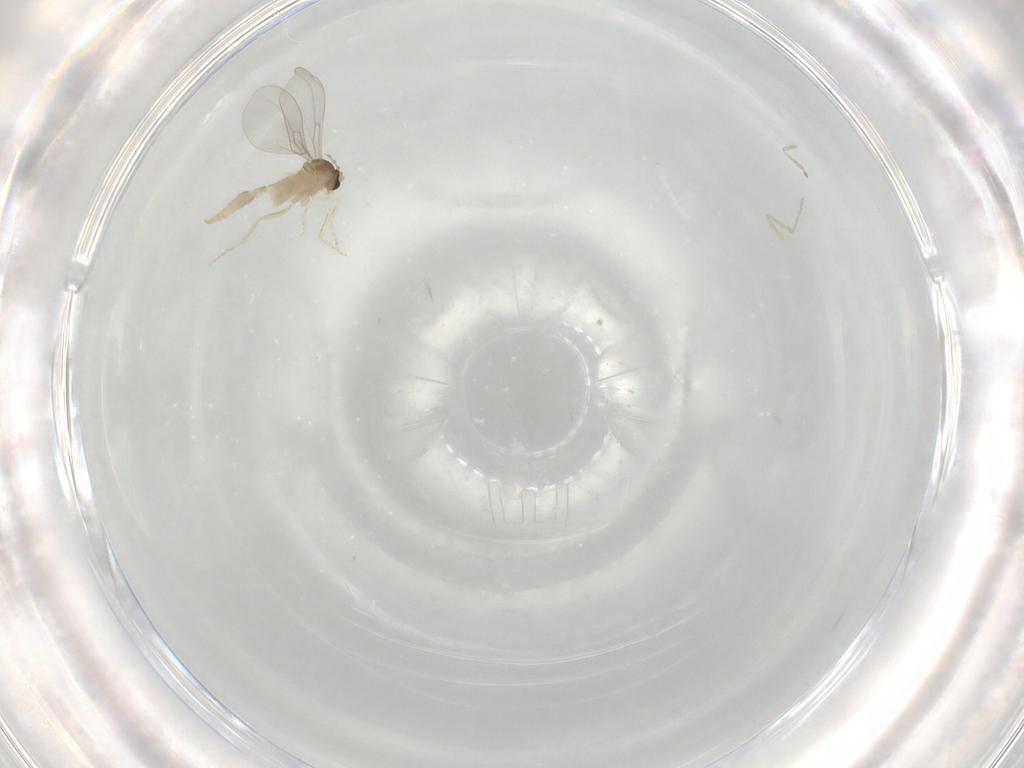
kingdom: Animalia
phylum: Arthropoda
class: Insecta
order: Diptera
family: Cecidomyiidae
